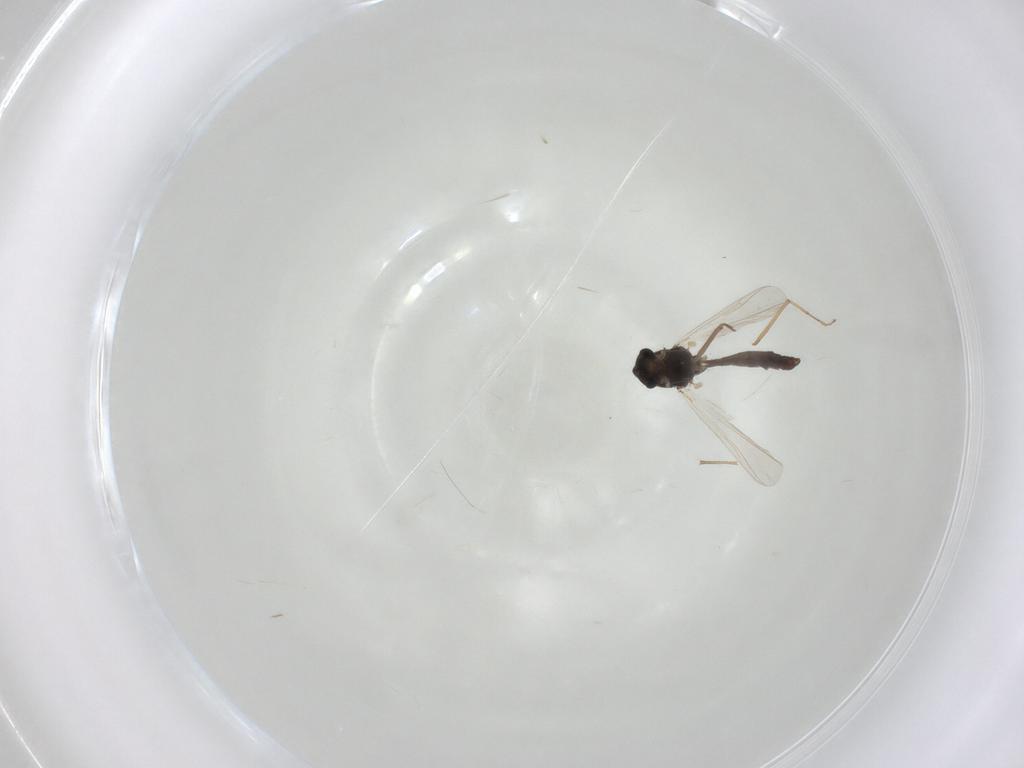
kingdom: Animalia
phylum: Arthropoda
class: Insecta
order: Diptera
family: Chironomidae
